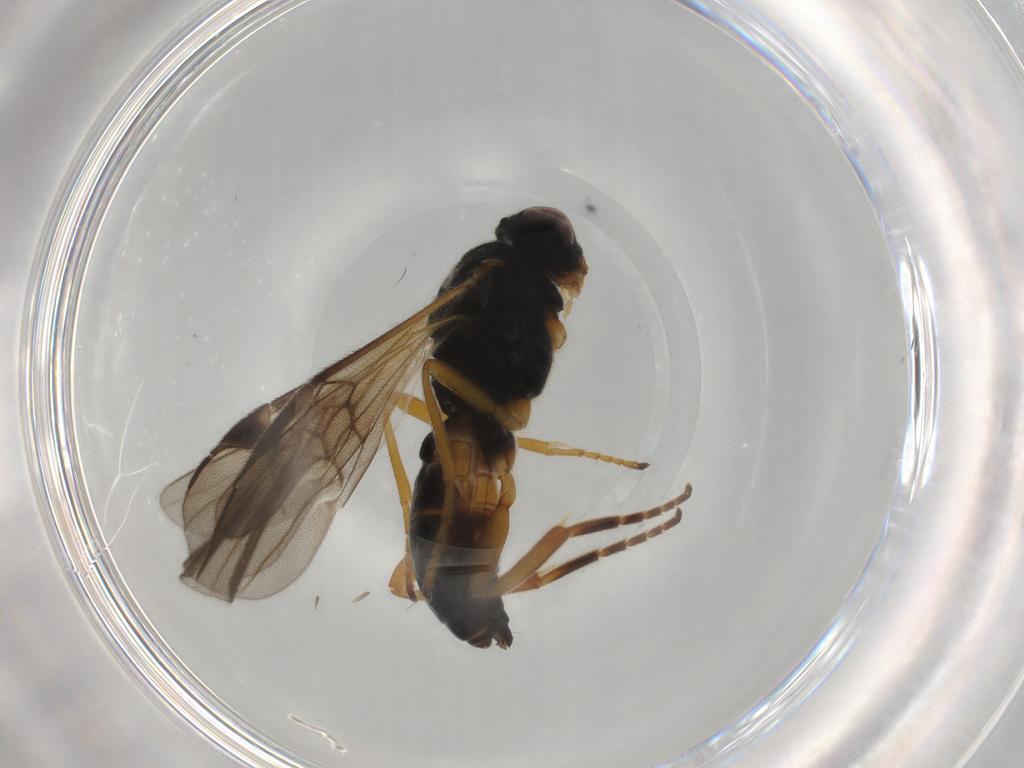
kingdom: Animalia
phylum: Arthropoda
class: Insecta
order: Hymenoptera
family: Braconidae
